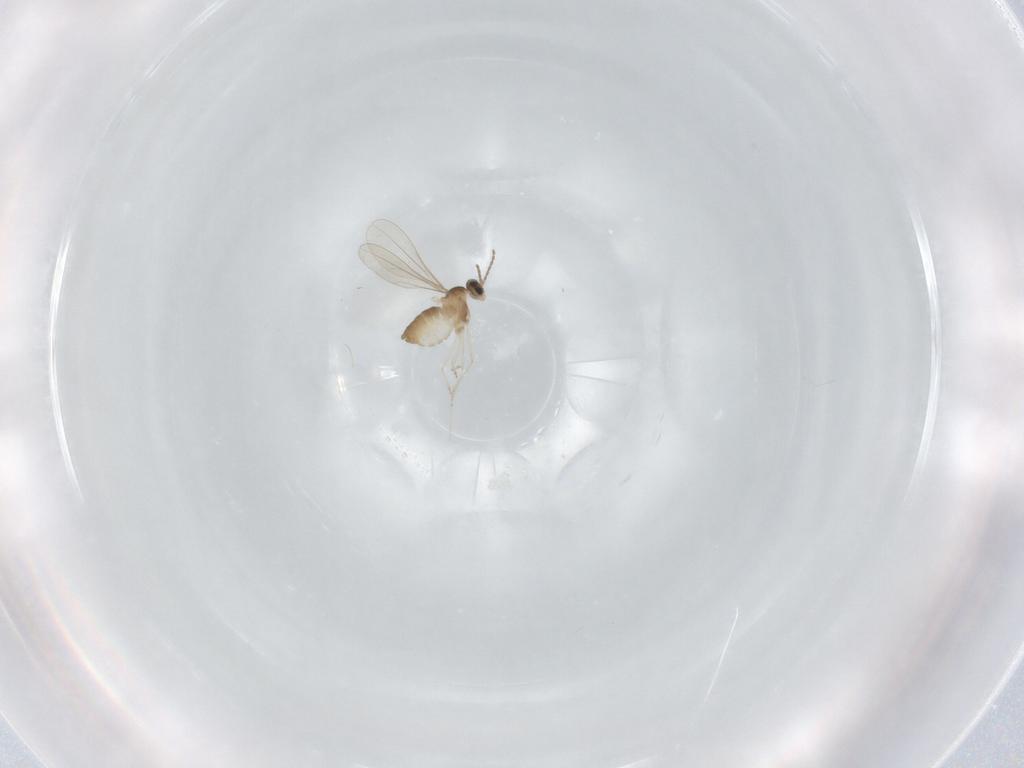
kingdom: Animalia
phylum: Arthropoda
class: Insecta
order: Diptera
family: Cecidomyiidae
